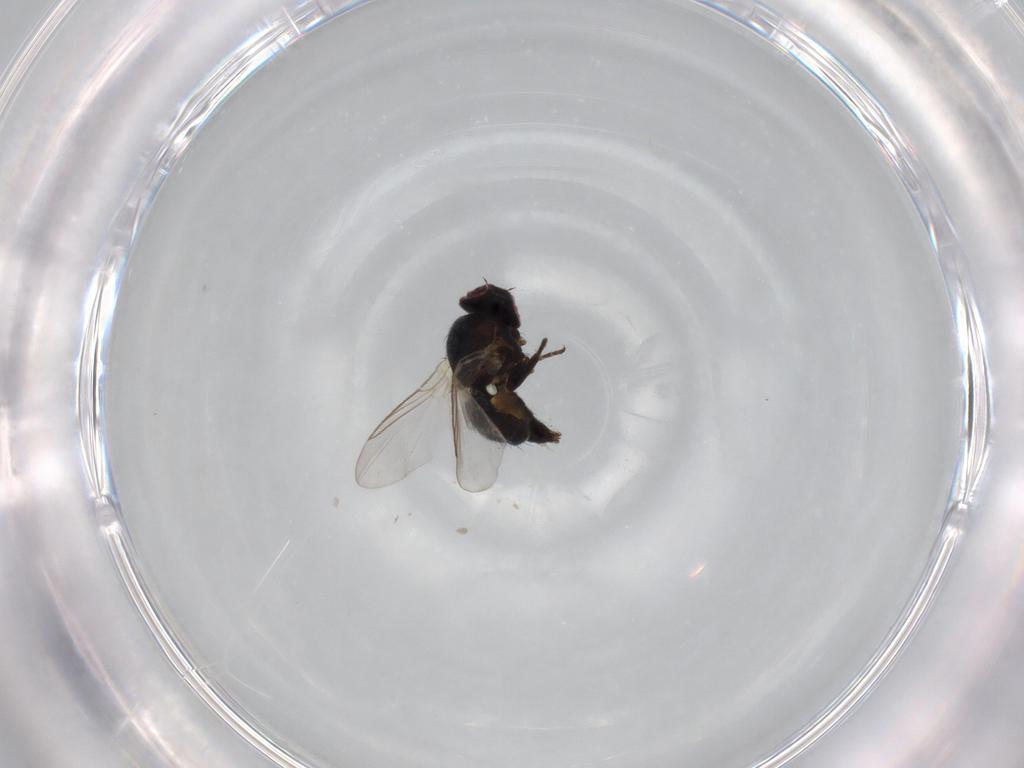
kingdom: Animalia
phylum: Arthropoda
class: Insecta
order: Diptera
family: Agromyzidae
